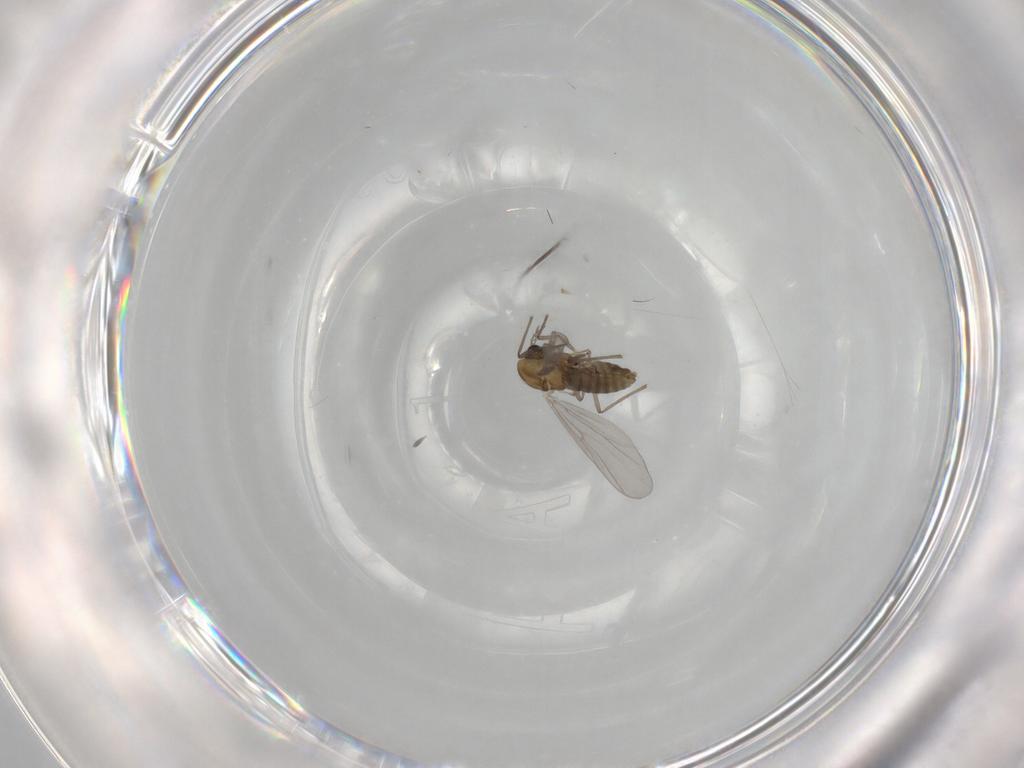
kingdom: Animalia
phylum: Arthropoda
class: Insecta
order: Diptera
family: Chironomidae
